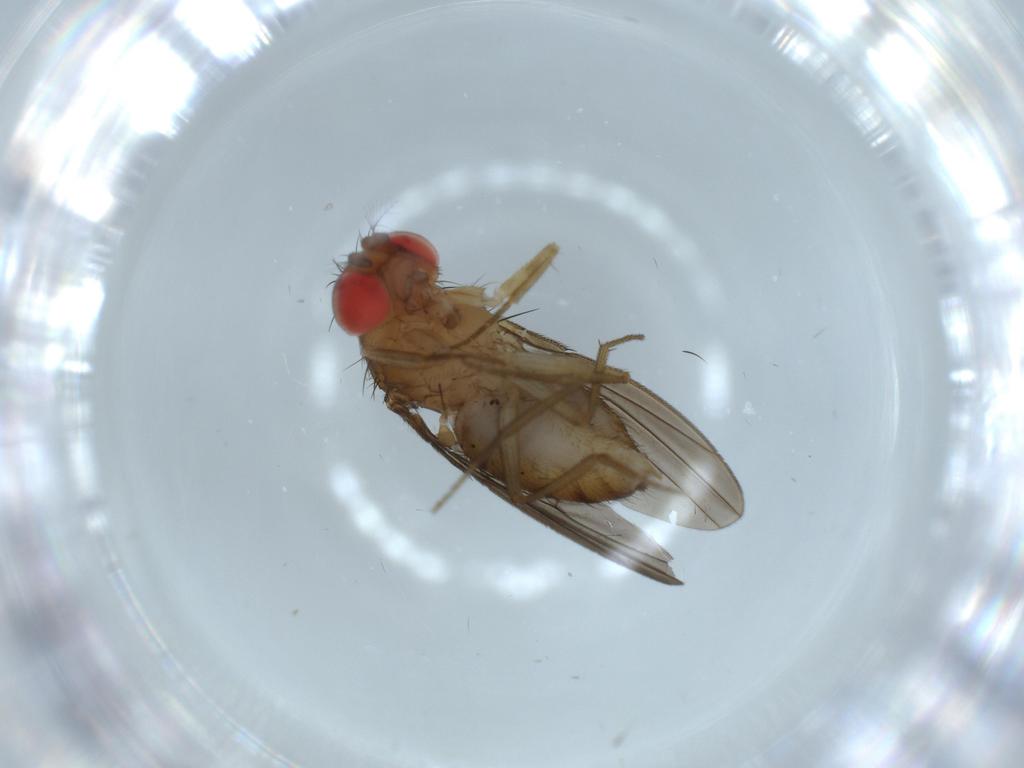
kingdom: Animalia
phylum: Arthropoda
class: Insecta
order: Diptera
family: Drosophilidae
